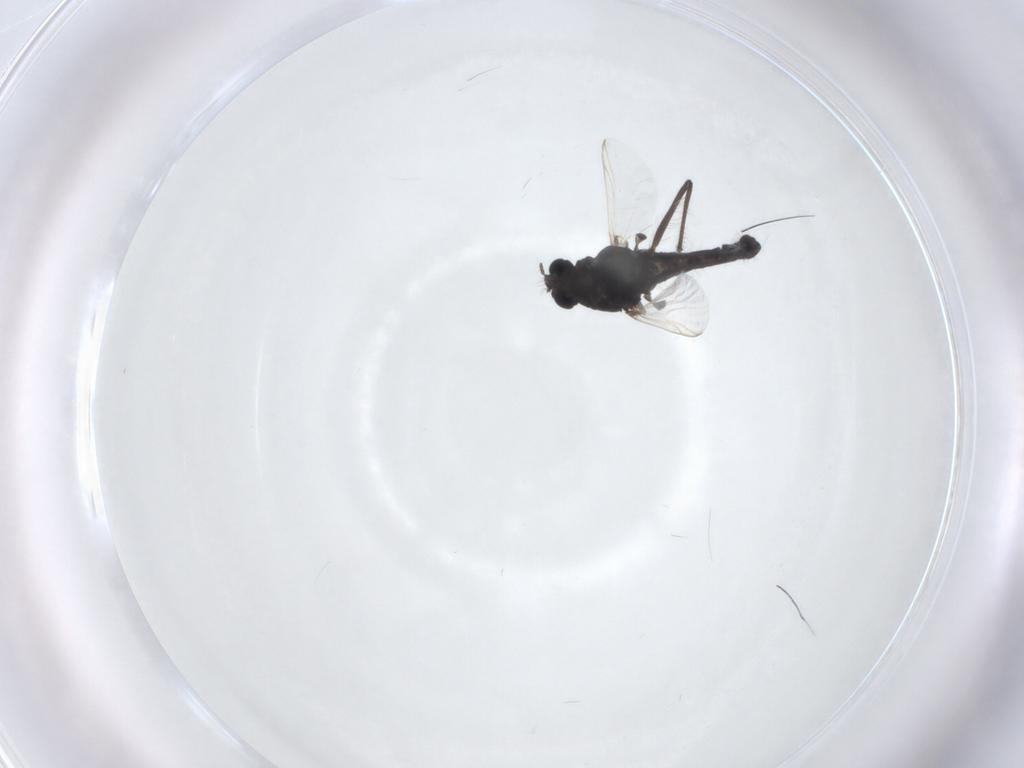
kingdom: Animalia
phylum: Arthropoda
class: Insecta
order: Diptera
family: Chironomidae
